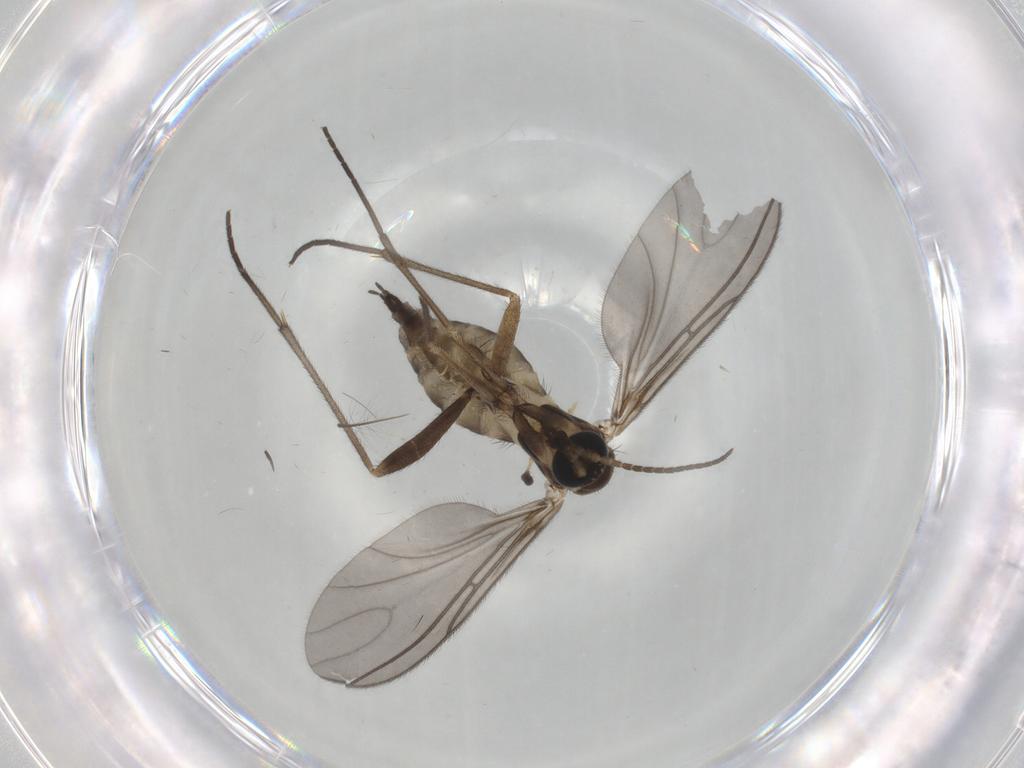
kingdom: Animalia
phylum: Arthropoda
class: Insecta
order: Diptera
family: Sciaridae
